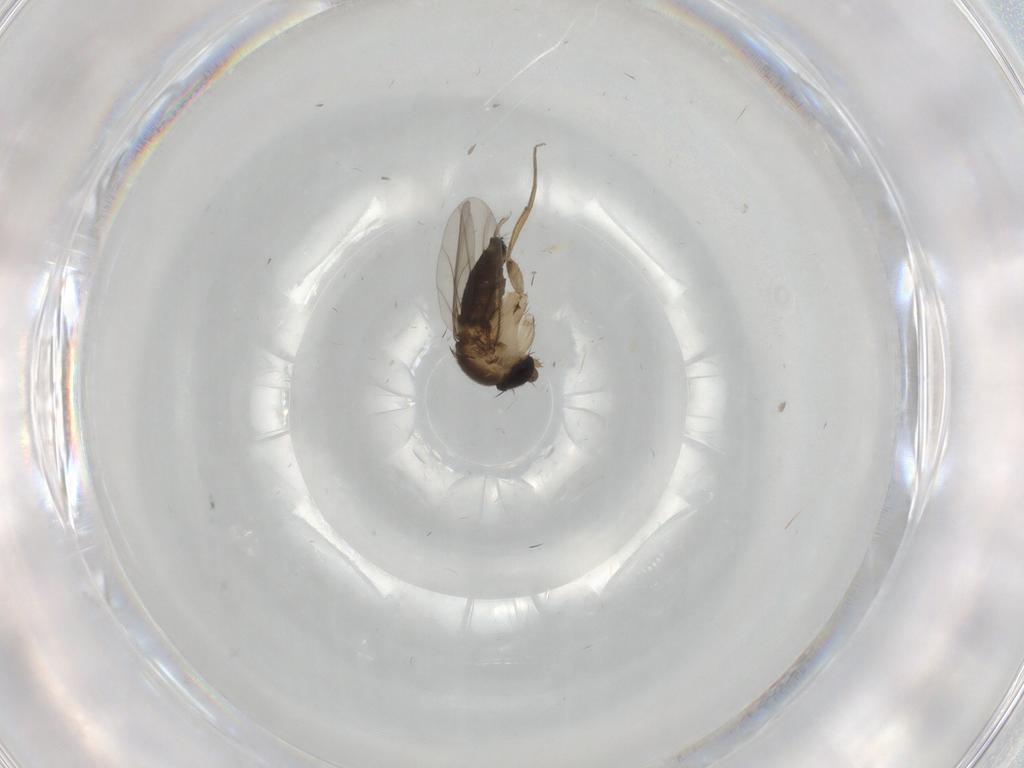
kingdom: Animalia
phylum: Arthropoda
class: Insecta
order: Diptera
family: Phoridae
